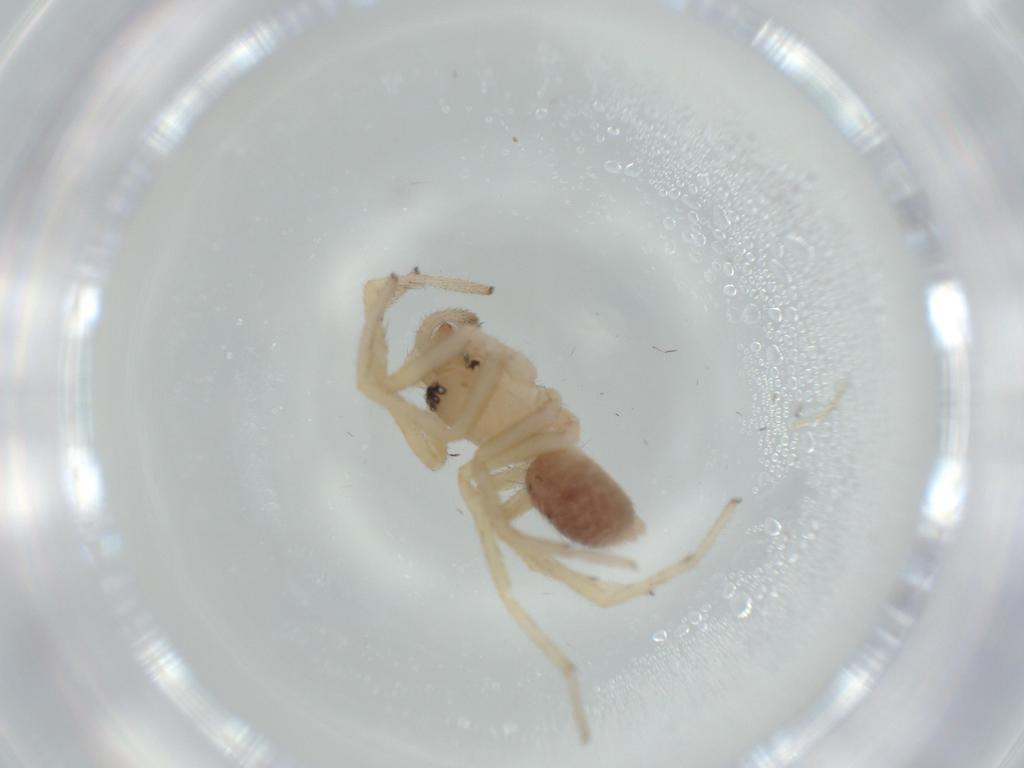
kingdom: Animalia
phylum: Arthropoda
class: Arachnida
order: Araneae
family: Corinnidae
